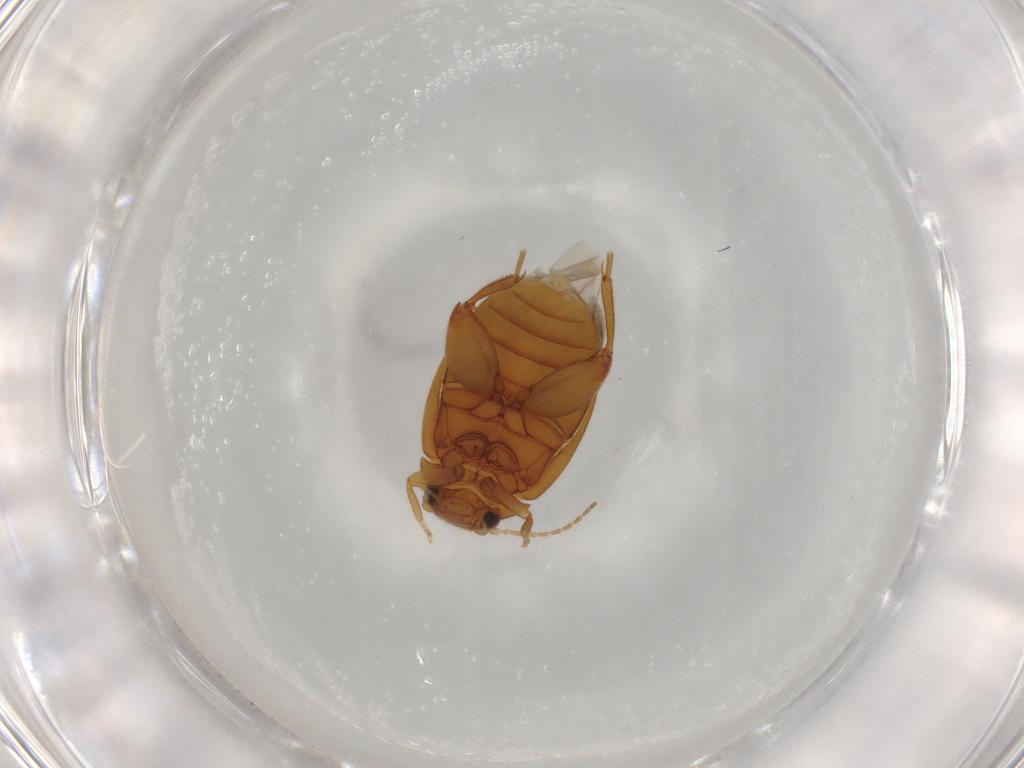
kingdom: Animalia
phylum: Arthropoda
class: Insecta
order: Coleoptera
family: Scirtidae
